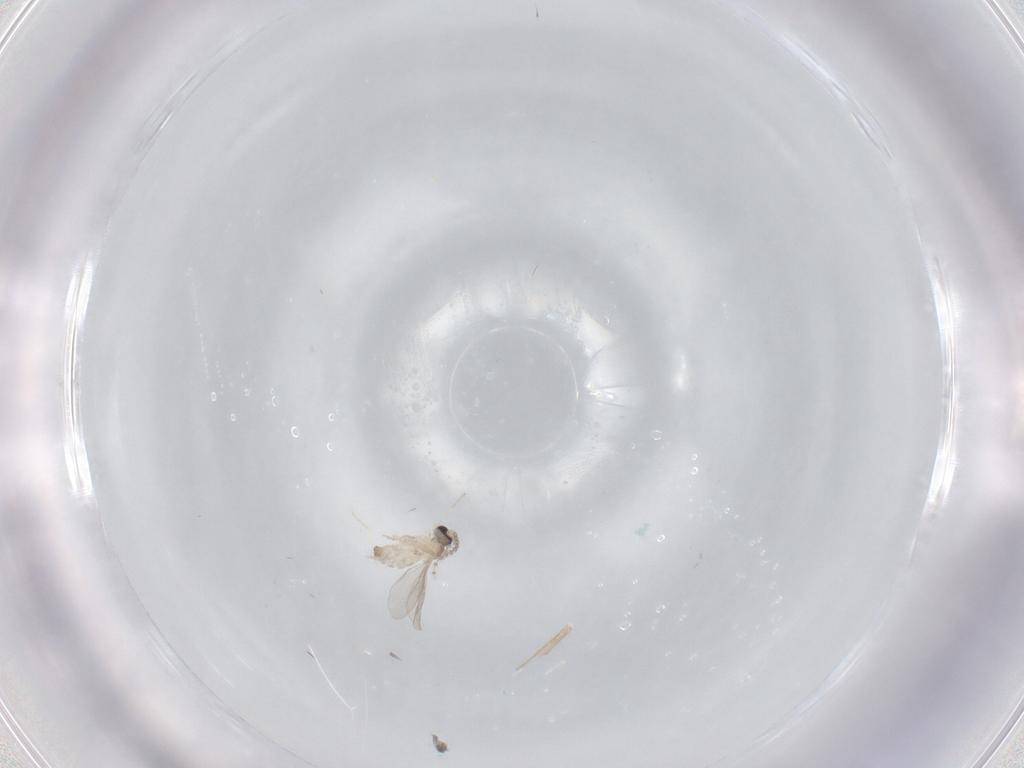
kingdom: Animalia
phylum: Arthropoda
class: Insecta
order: Diptera
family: Cecidomyiidae
